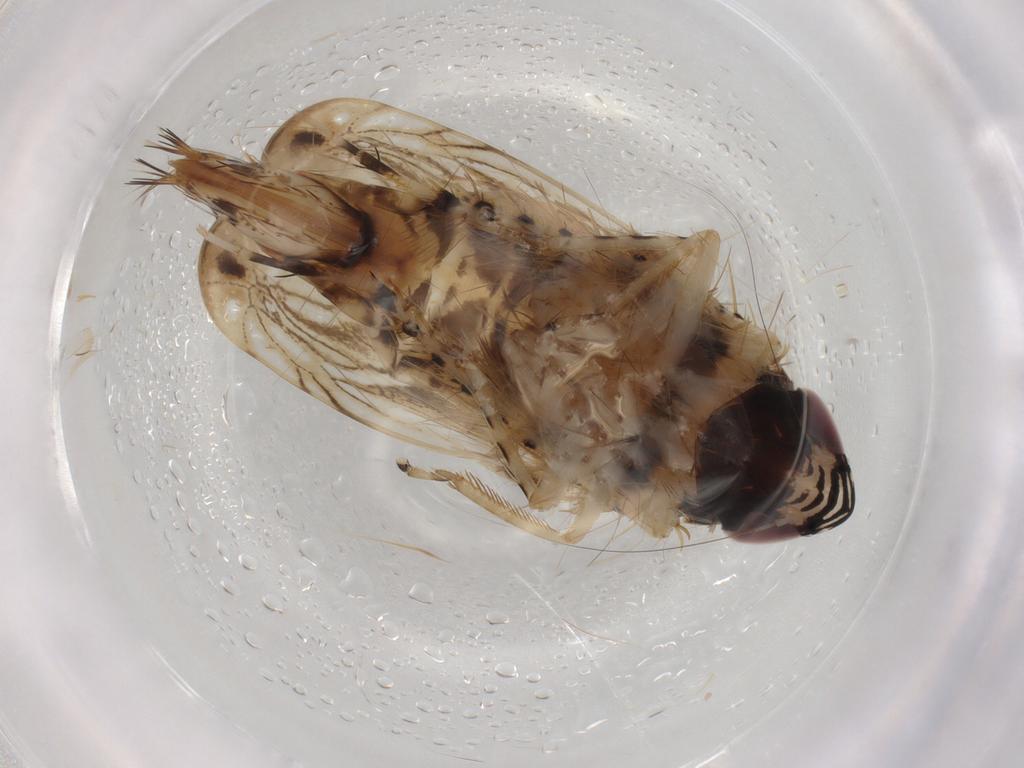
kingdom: Animalia
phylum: Arthropoda
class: Insecta
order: Hemiptera
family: Cicadellidae
